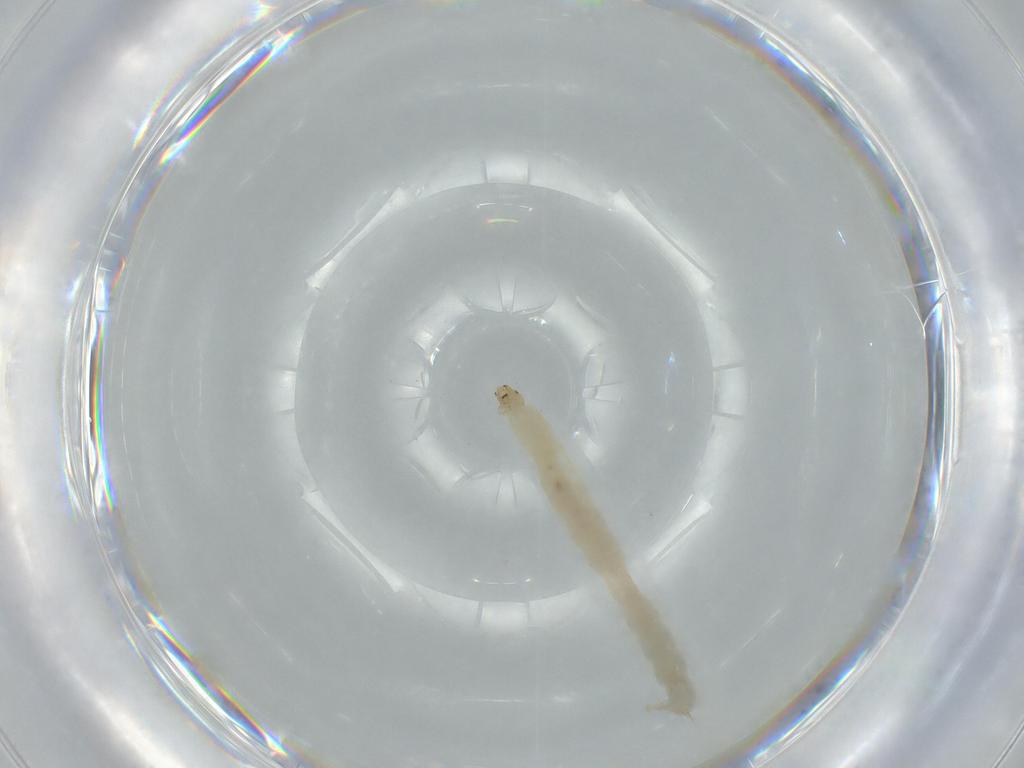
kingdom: Animalia
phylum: Arthropoda
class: Insecta
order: Diptera
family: Chironomidae
